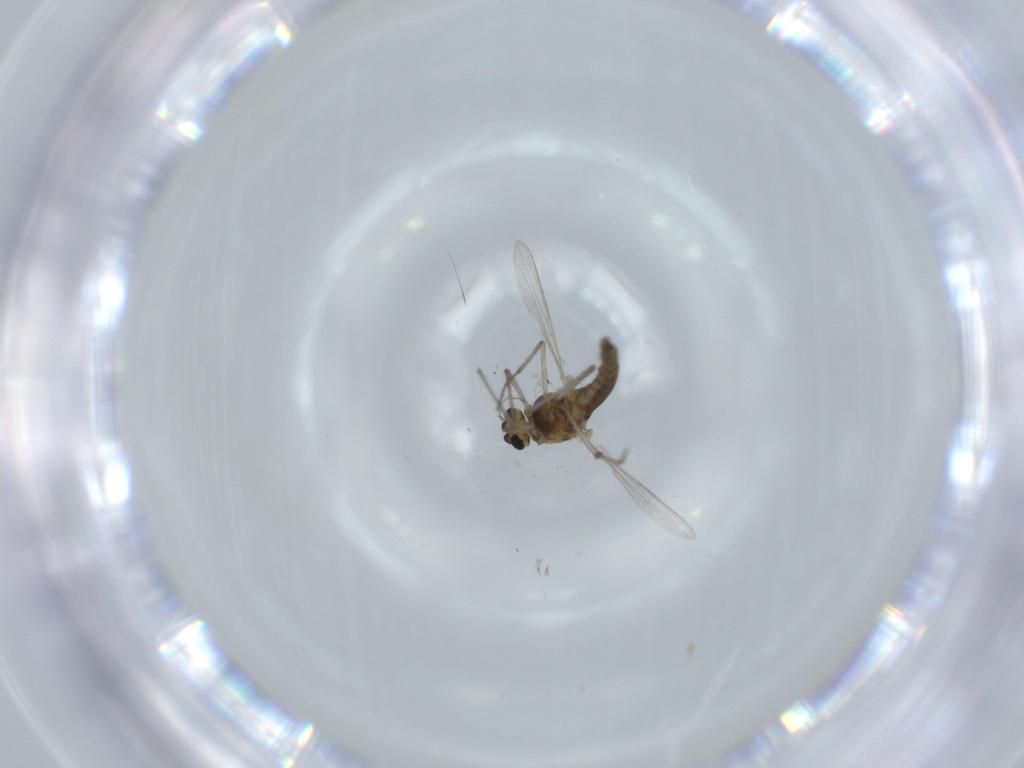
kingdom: Animalia
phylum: Arthropoda
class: Insecta
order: Diptera
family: Chironomidae
